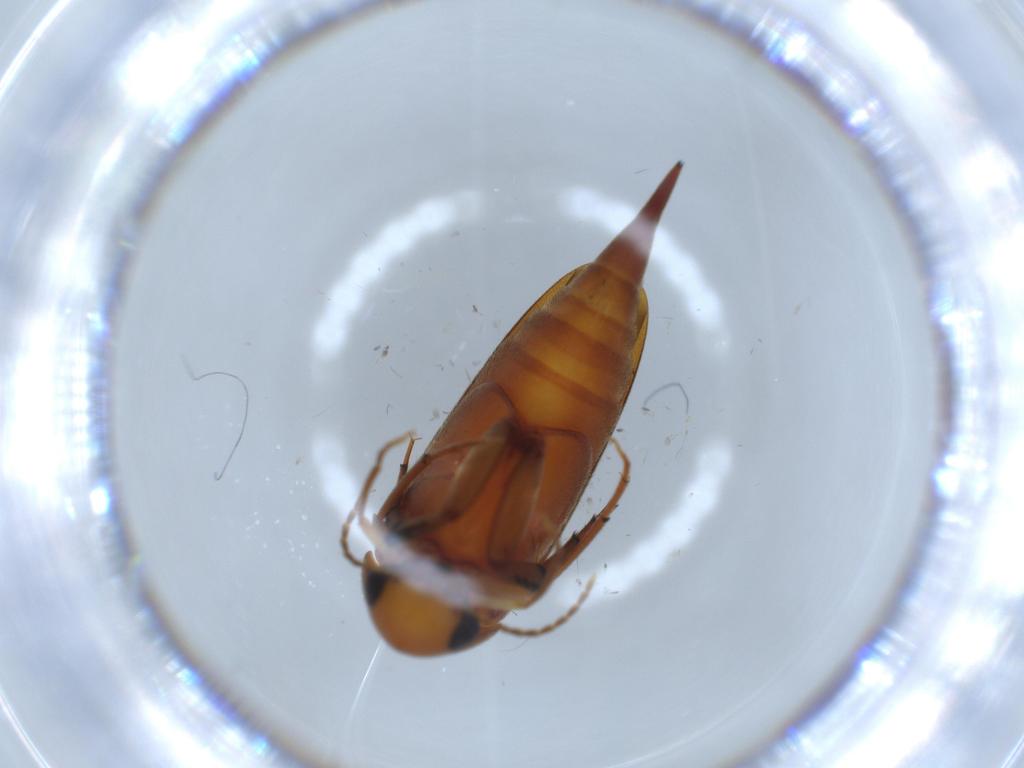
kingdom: Animalia
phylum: Arthropoda
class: Insecta
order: Coleoptera
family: Mordellidae
